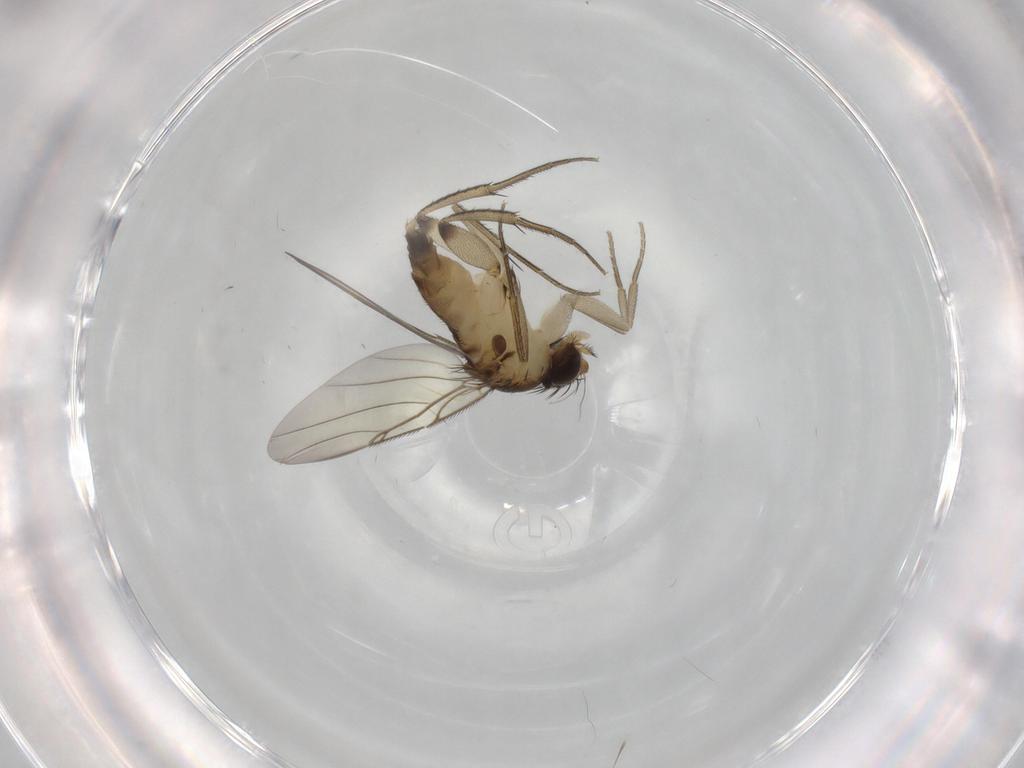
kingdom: Animalia
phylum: Arthropoda
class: Insecta
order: Diptera
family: Phoridae
